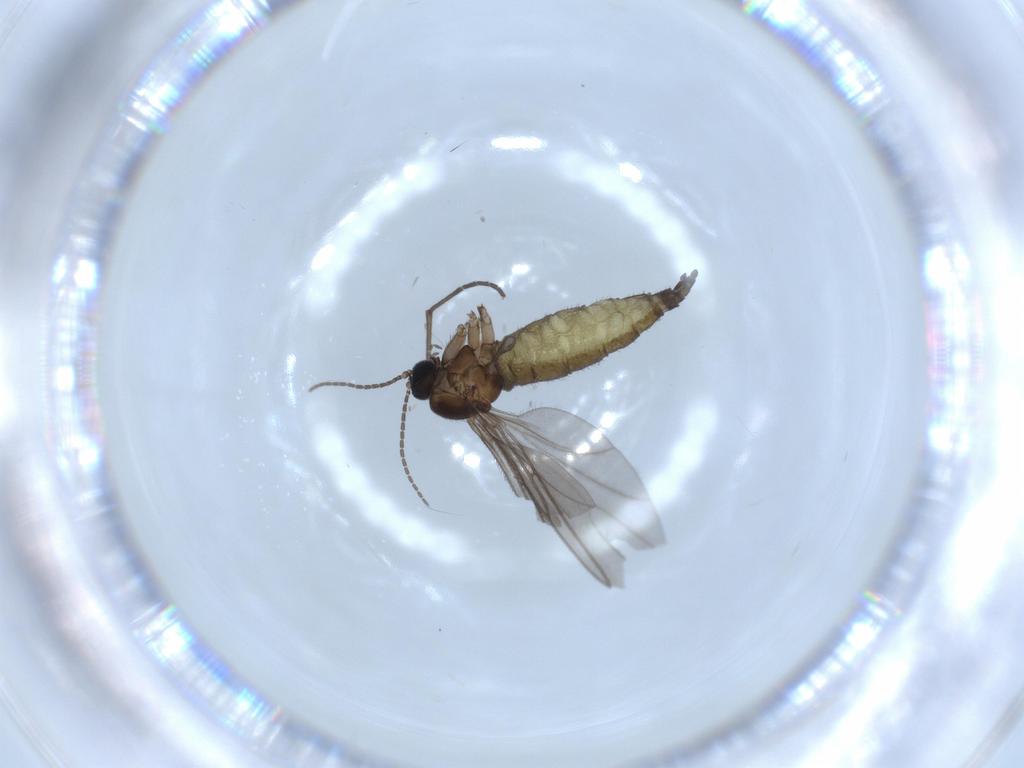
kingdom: Animalia
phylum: Arthropoda
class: Insecta
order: Diptera
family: Sciaridae
